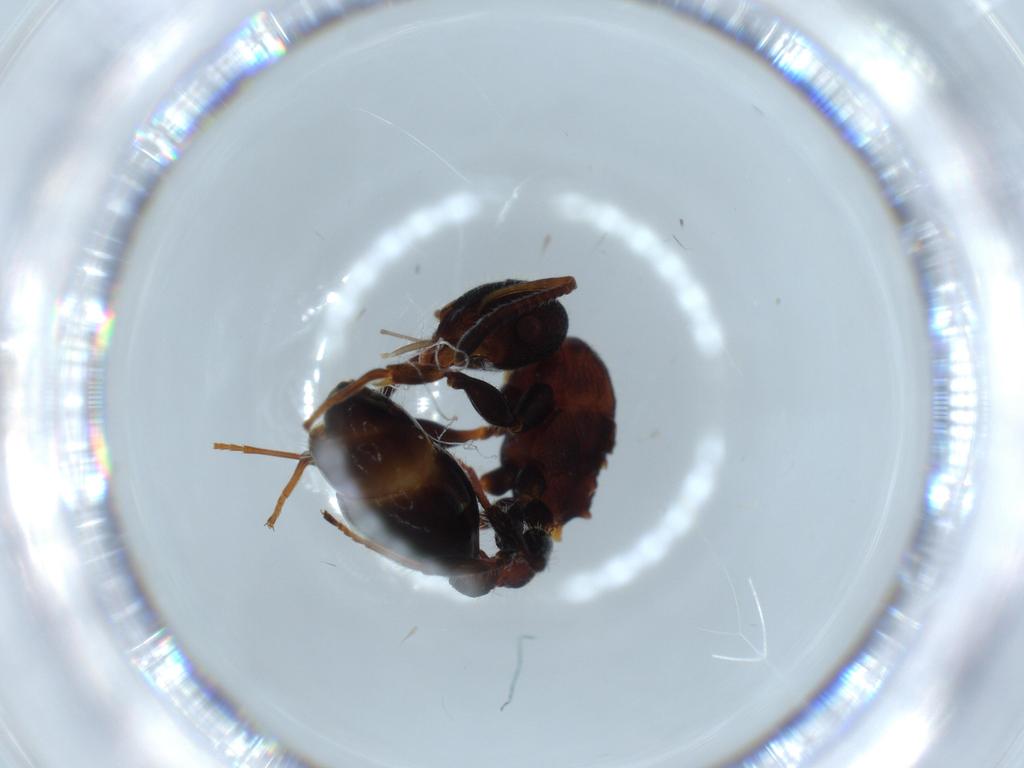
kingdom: Animalia
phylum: Arthropoda
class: Insecta
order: Hymenoptera
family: Formicidae
